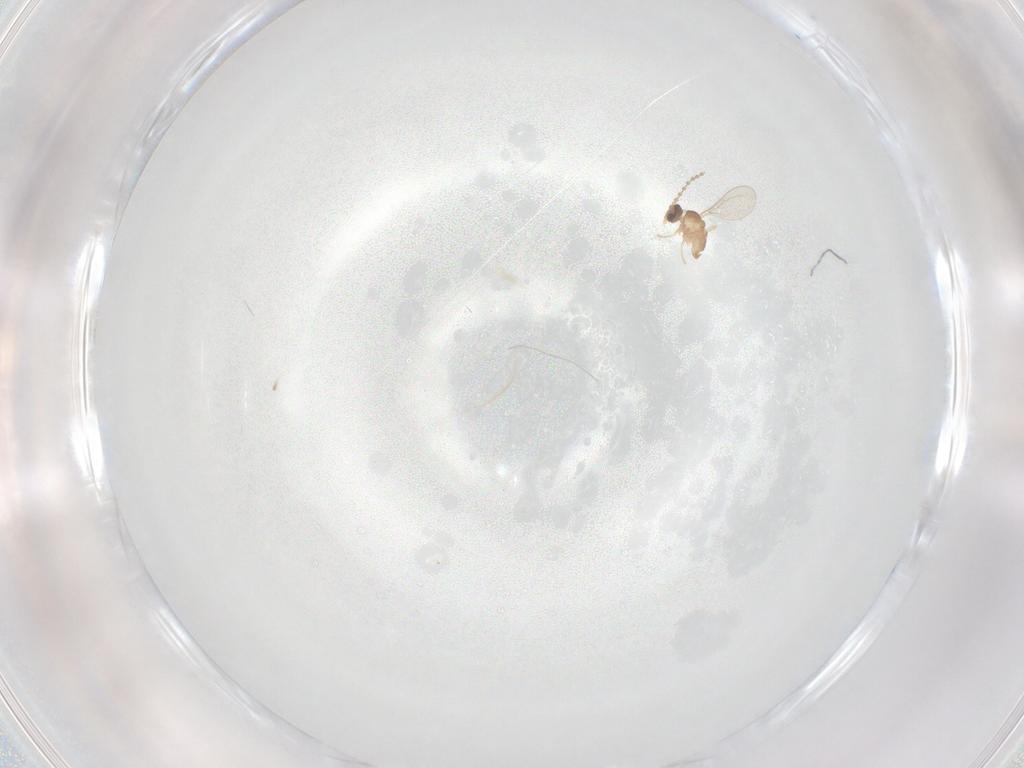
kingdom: Animalia
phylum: Arthropoda
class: Insecta
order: Diptera
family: Cecidomyiidae
